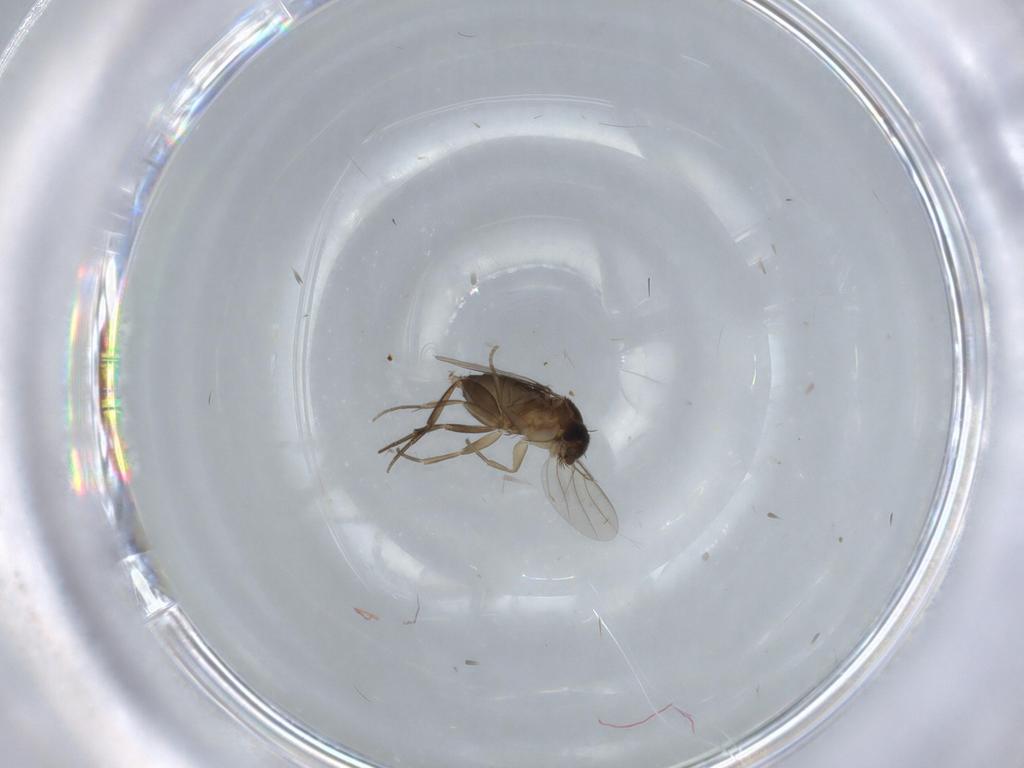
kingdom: Animalia
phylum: Arthropoda
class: Insecta
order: Diptera
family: Phoridae
